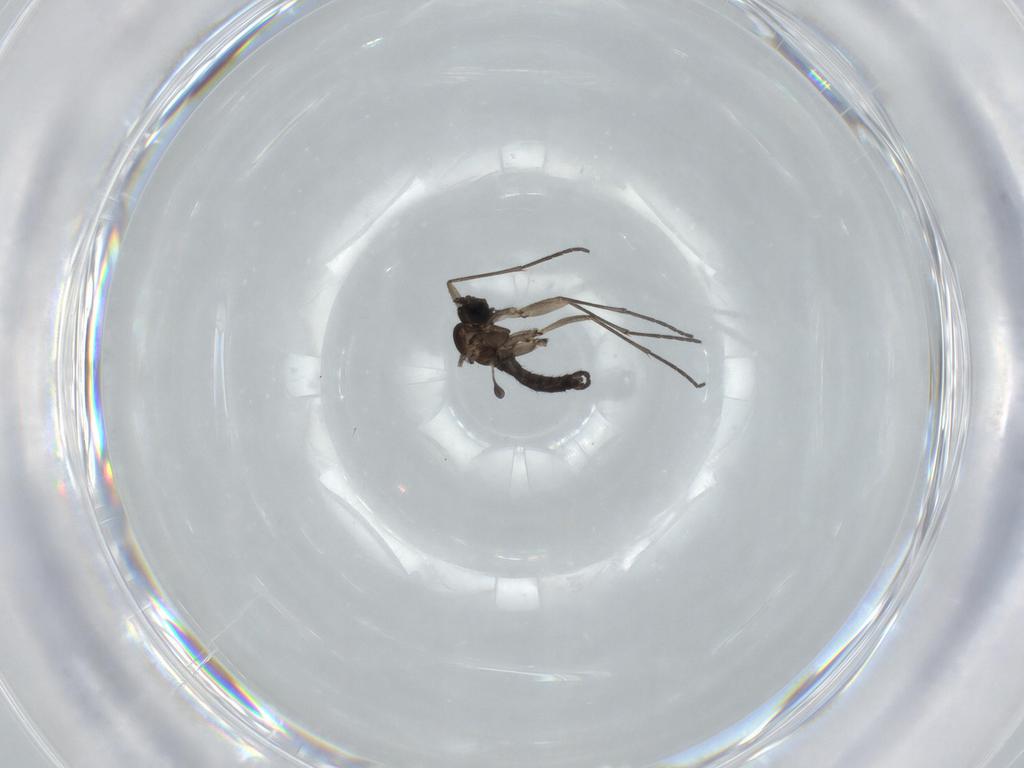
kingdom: Animalia
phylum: Arthropoda
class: Insecta
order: Diptera
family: Sciaridae
